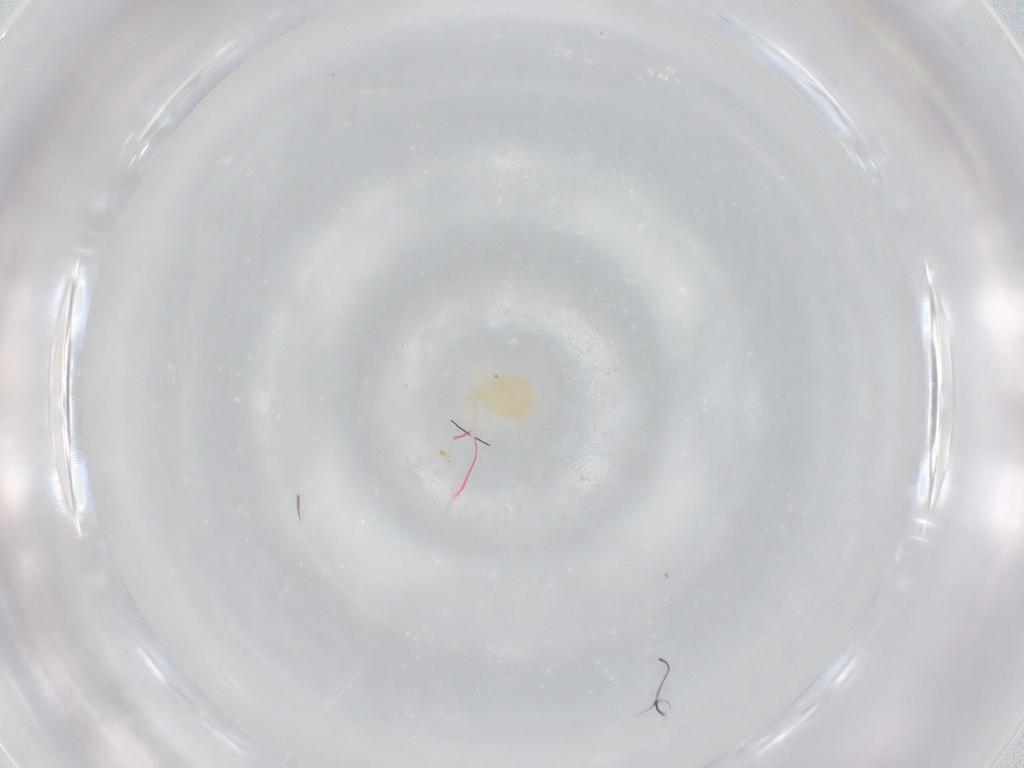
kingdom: Animalia
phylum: Arthropoda
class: Arachnida
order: Trombidiformes
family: Anystidae
